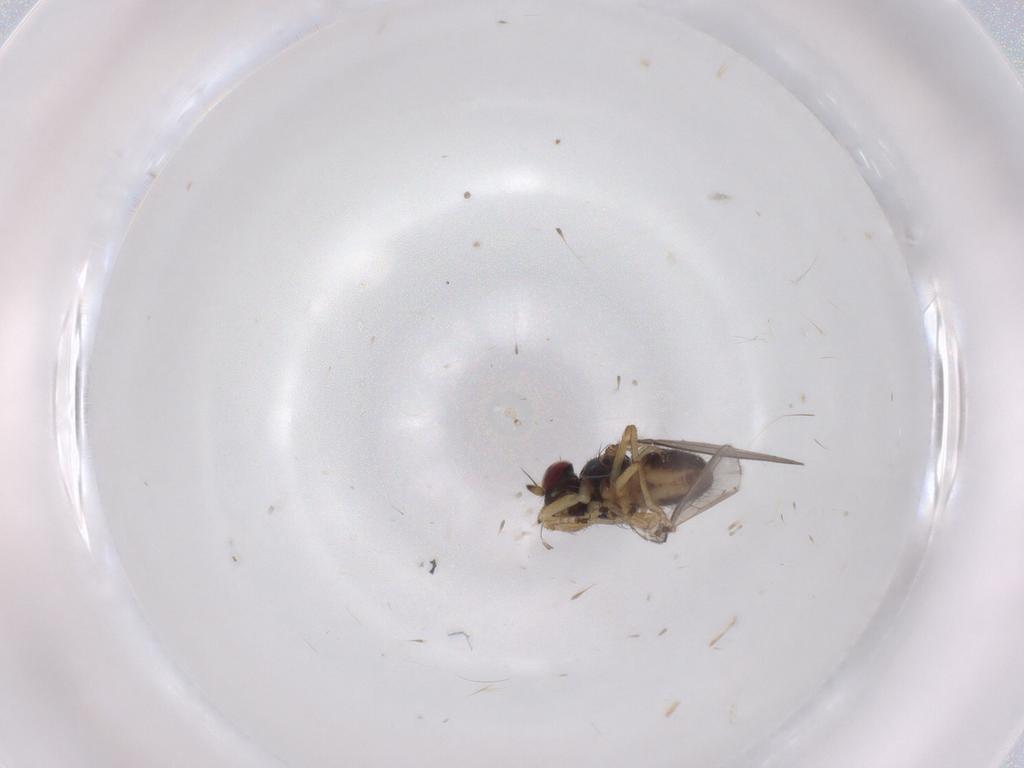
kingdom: Animalia
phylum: Arthropoda
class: Insecta
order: Diptera
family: Ephydridae
